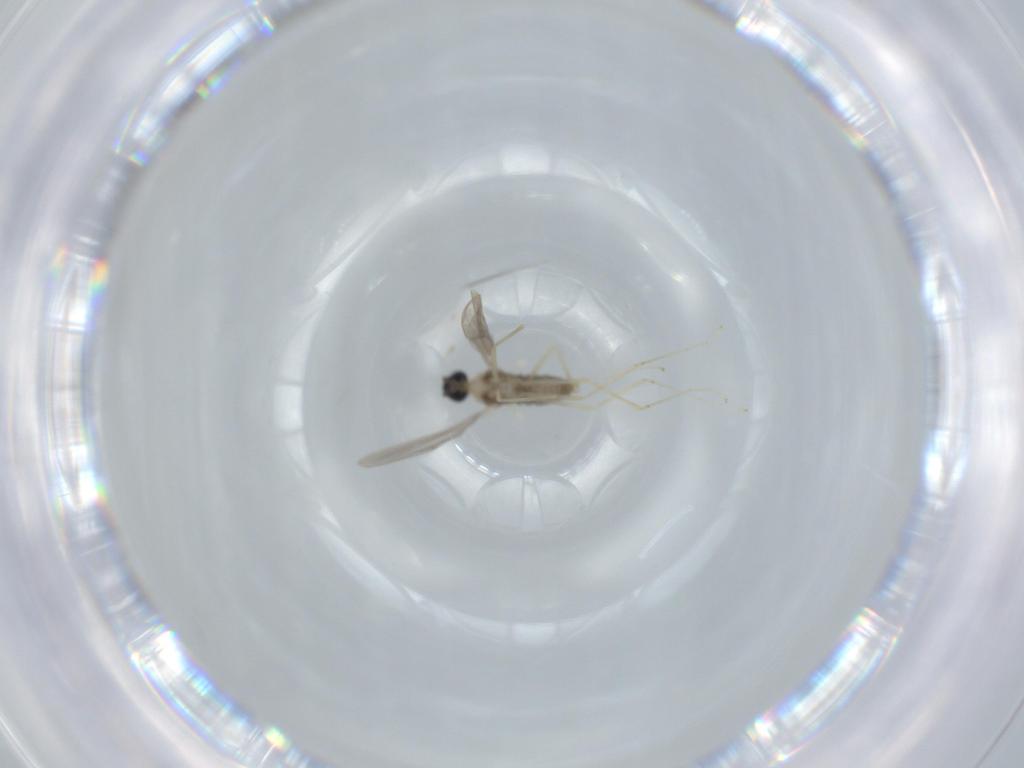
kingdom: Animalia
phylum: Arthropoda
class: Insecta
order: Diptera
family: Cecidomyiidae
